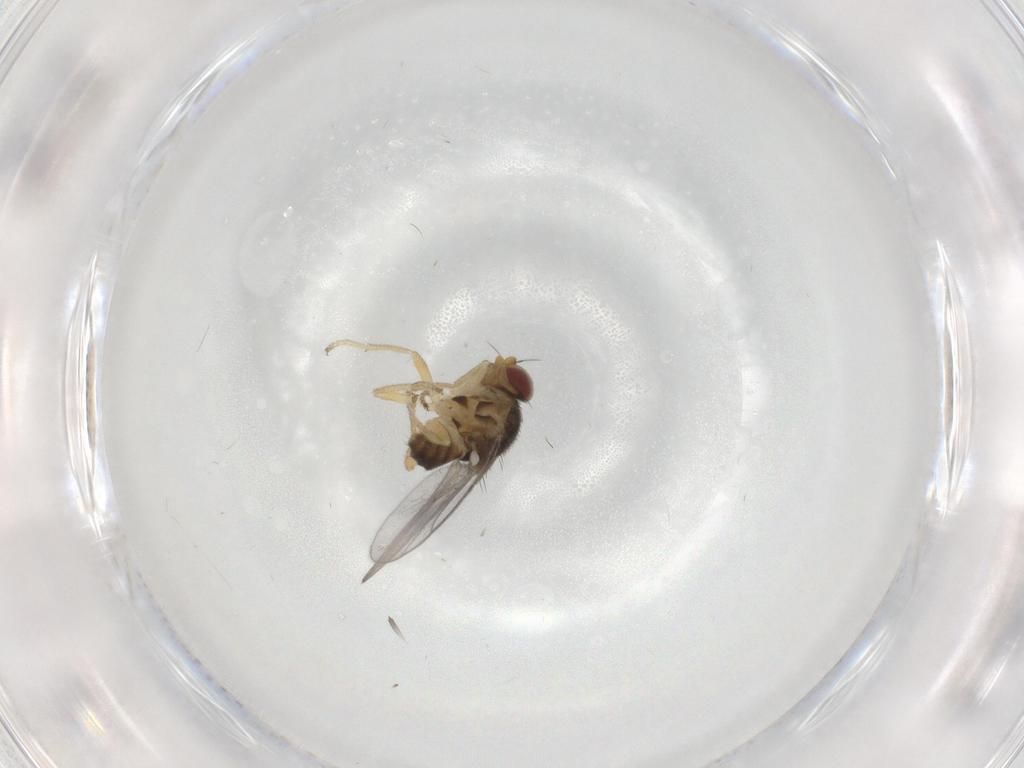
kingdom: Animalia
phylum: Arthropoda
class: Insecta
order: Diptera
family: Chloropidae
